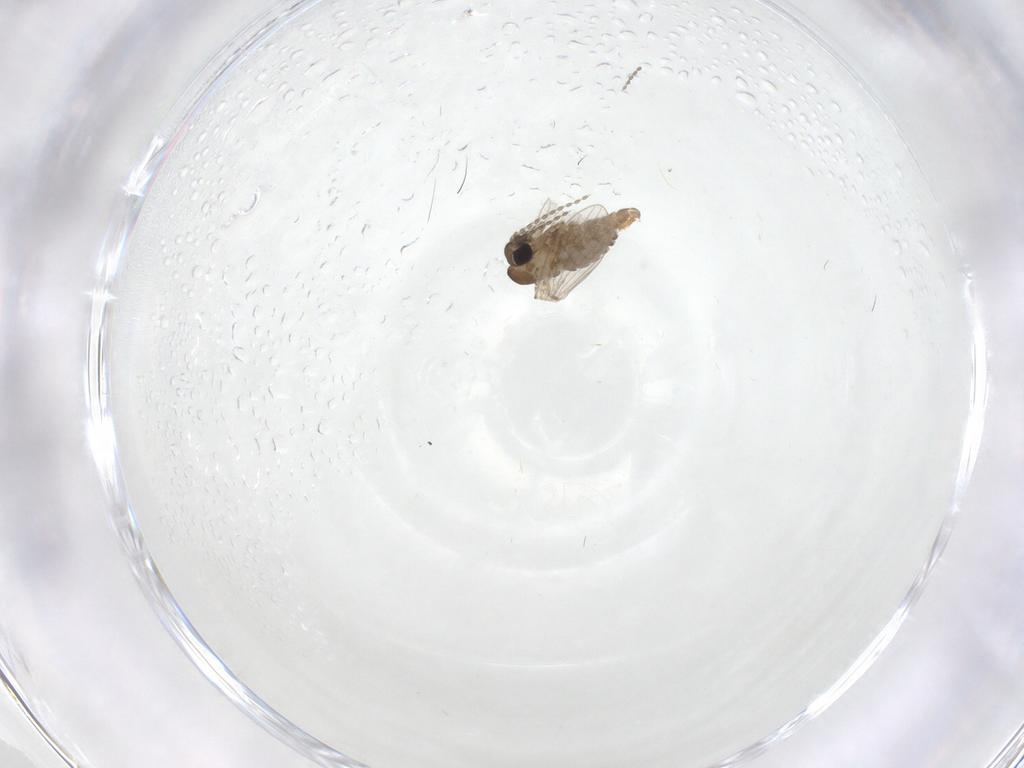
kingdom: Animalia
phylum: Arthropoda
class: Insecta
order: Diptera
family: Psychodidae
